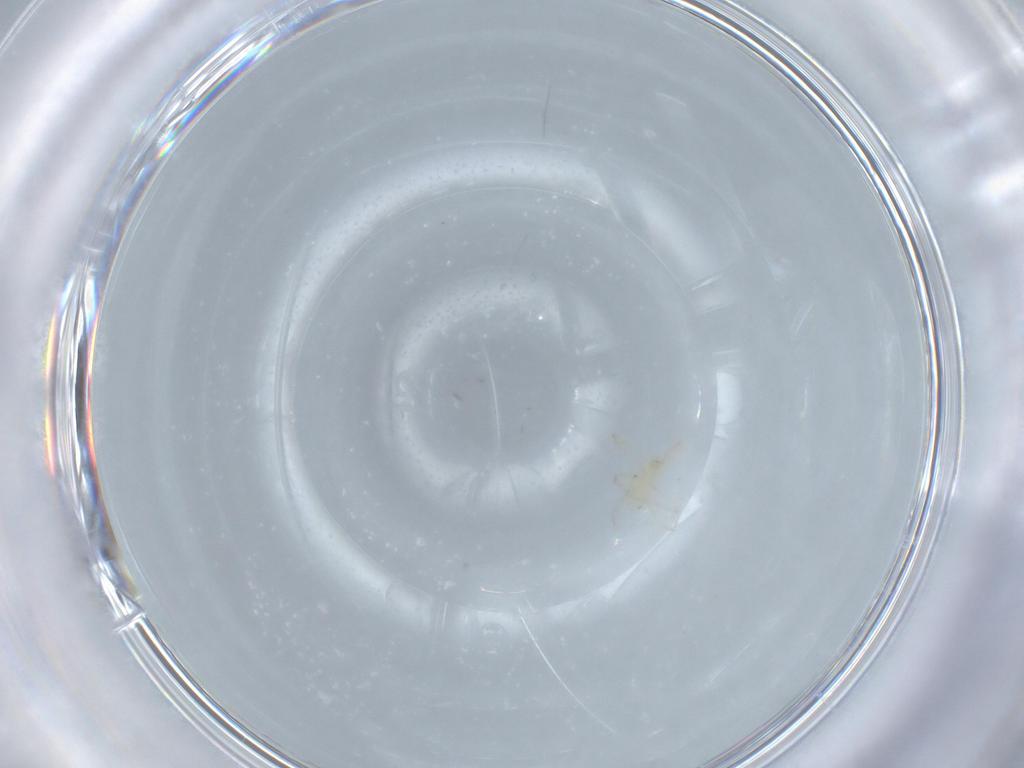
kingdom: Animalia
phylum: Arthropoda
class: Arachnida
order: Trombidiformes
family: Erythraeidae
